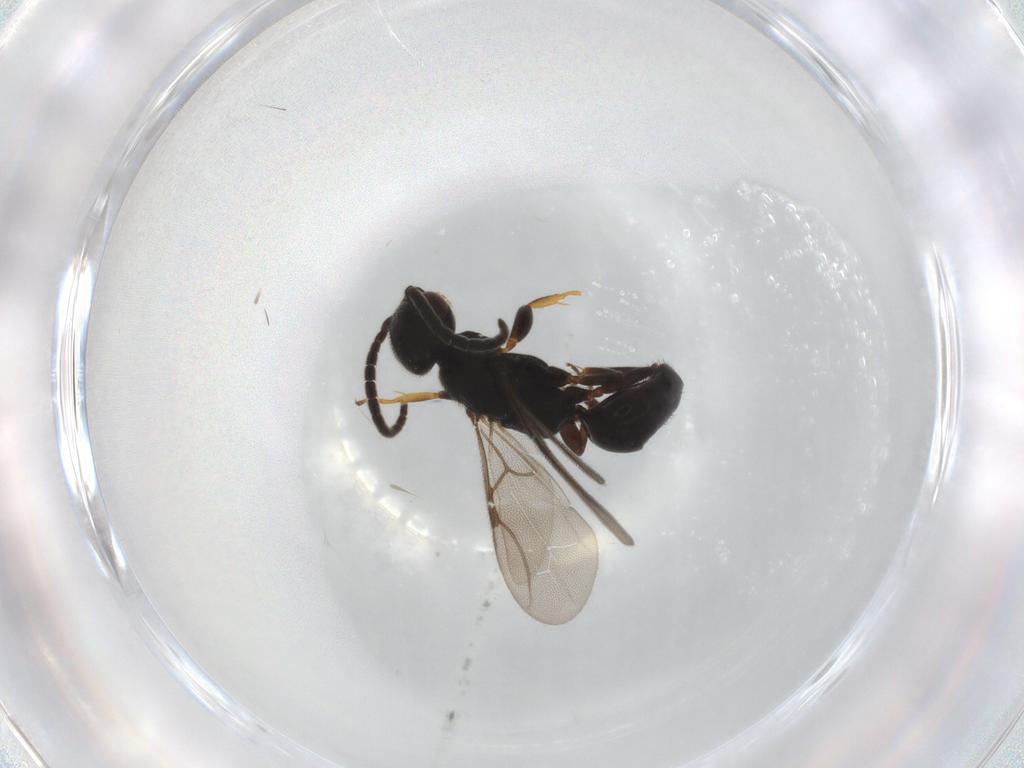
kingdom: Animalia
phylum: Arthropoda
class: Insecta
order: Hymenoptera
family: Bethylidae
